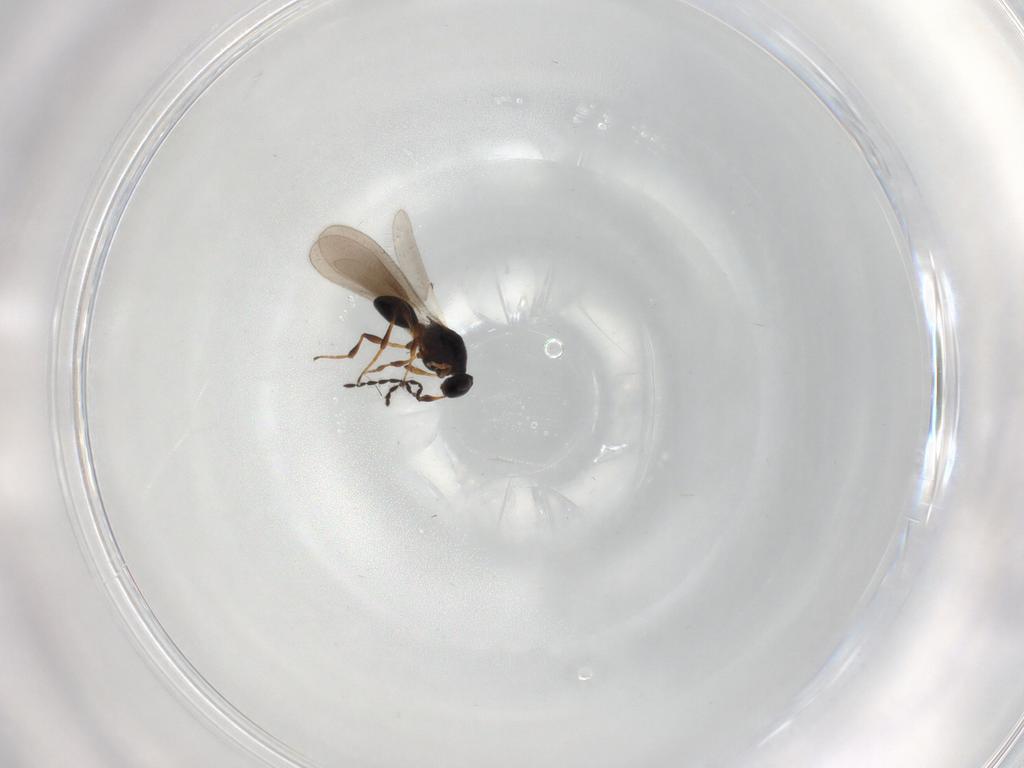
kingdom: Animalia
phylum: Arthropoda
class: Insecta
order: Hymenoptera
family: Platygastridae
